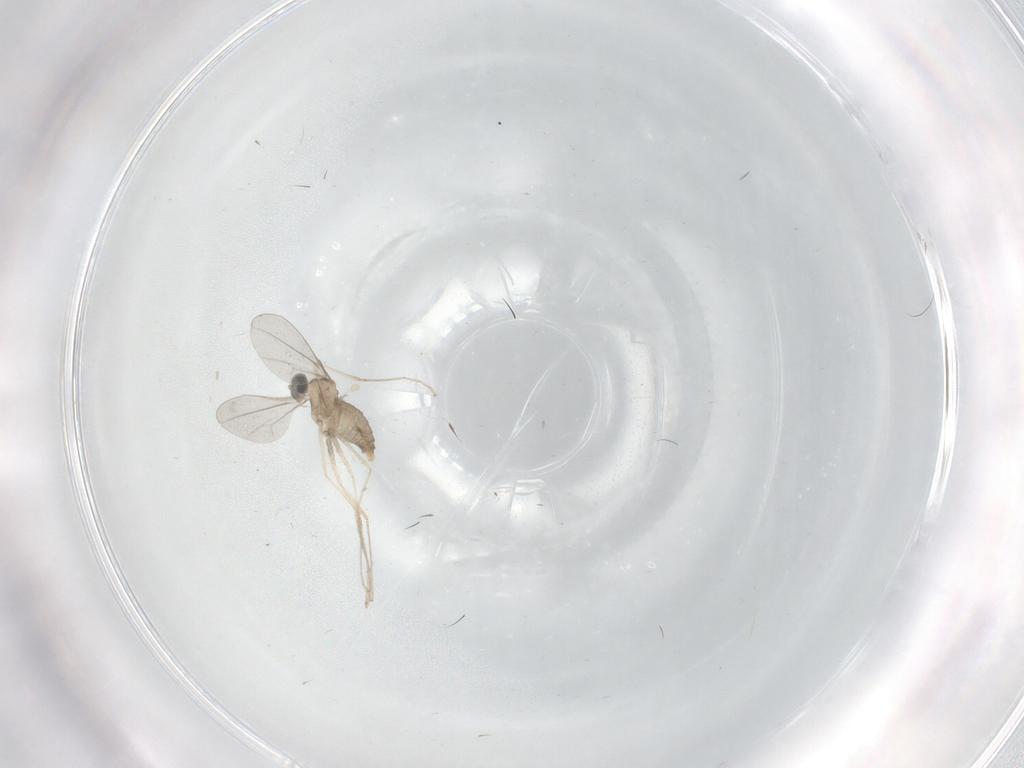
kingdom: Animalia
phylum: Arthropoda
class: Insecta
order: Diptera
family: Cecidomyiidae
